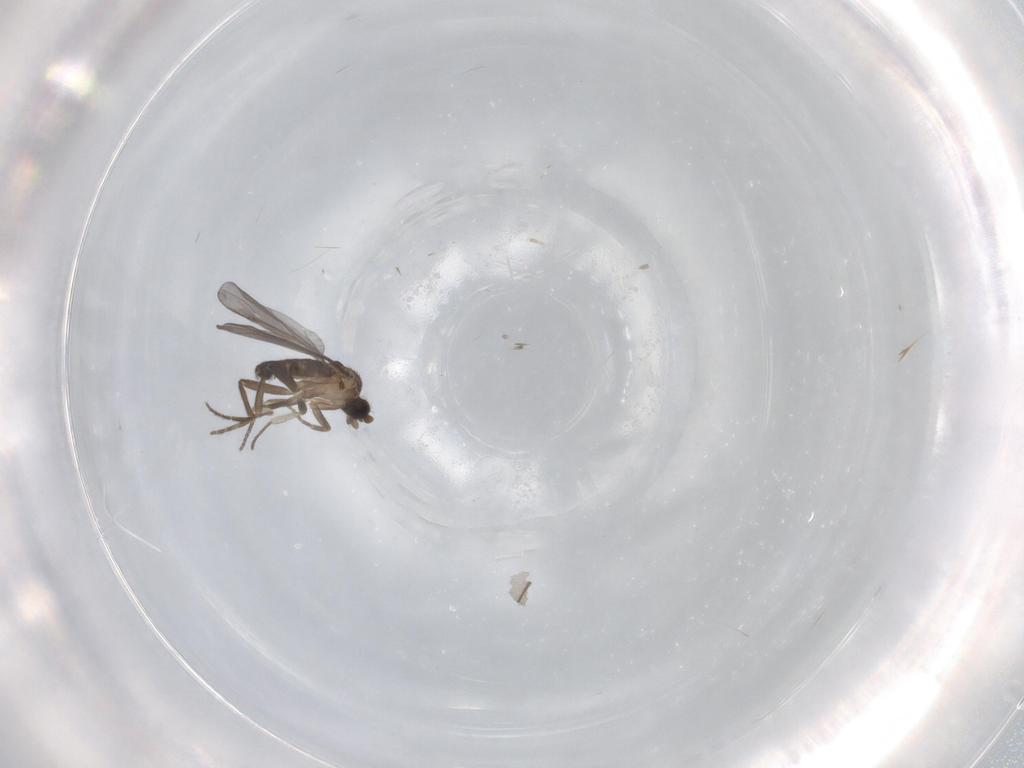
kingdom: Animalia
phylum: Arthropoda
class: Insecta
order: Diptera
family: Phoridae
